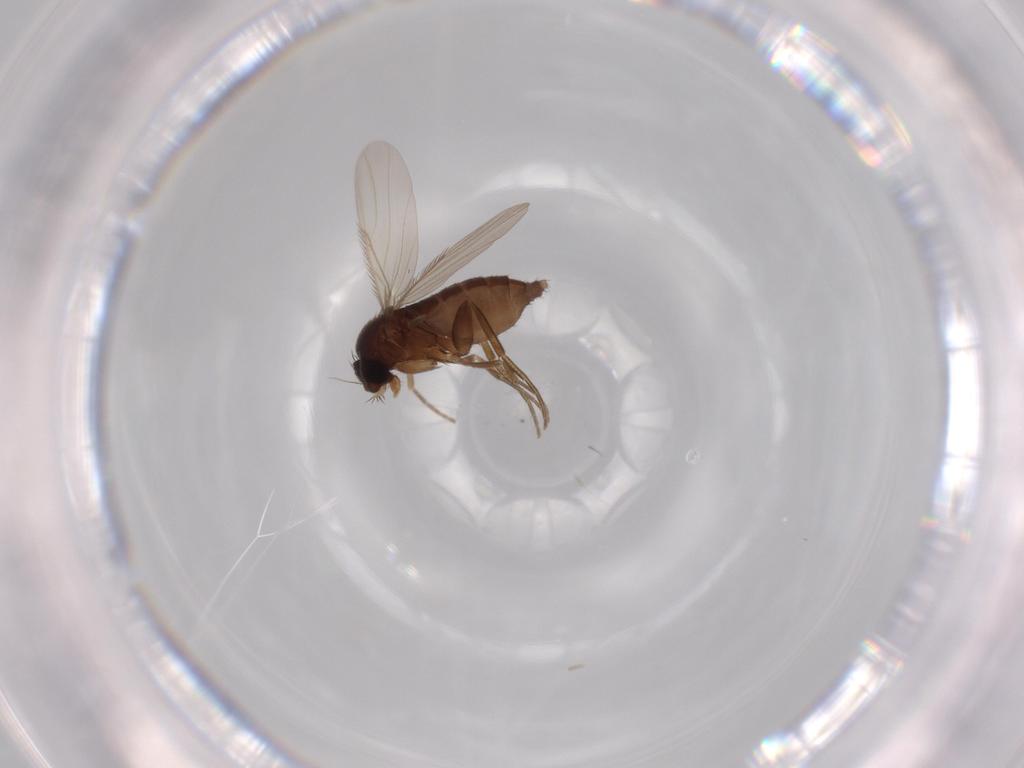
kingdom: Animalia
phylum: Arthropoda
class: Insecta
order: Diptera
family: Dolichopodidae
